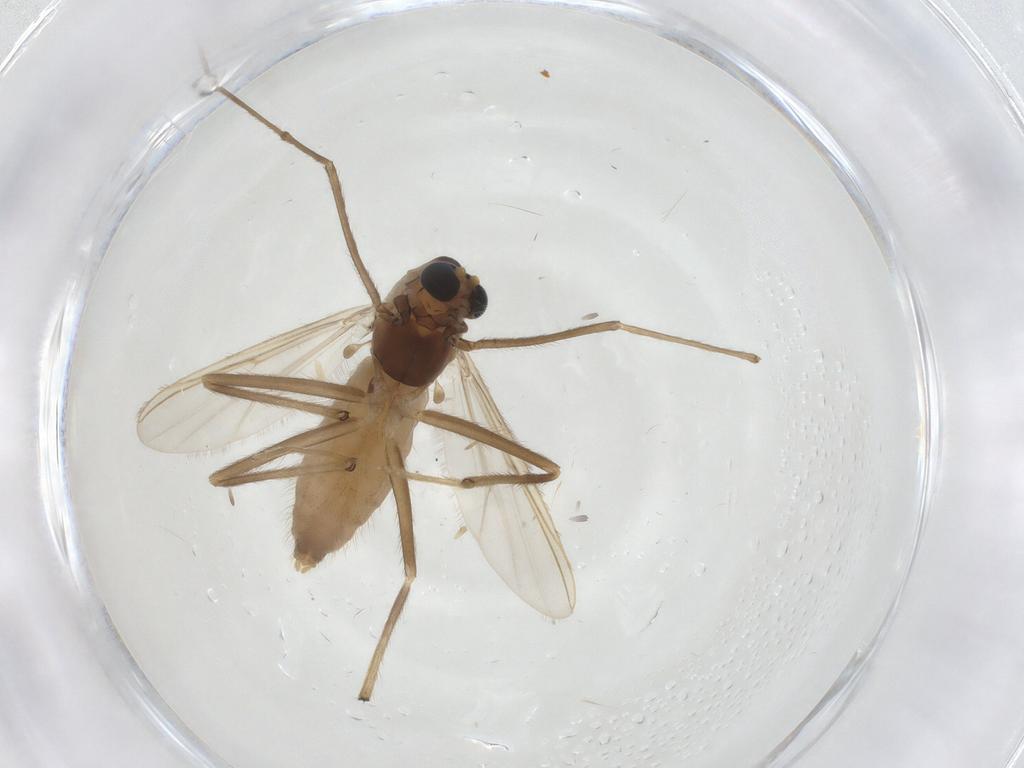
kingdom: Animalia
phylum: Arthropoda
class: Insecta
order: Diptera
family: Chironomidae
